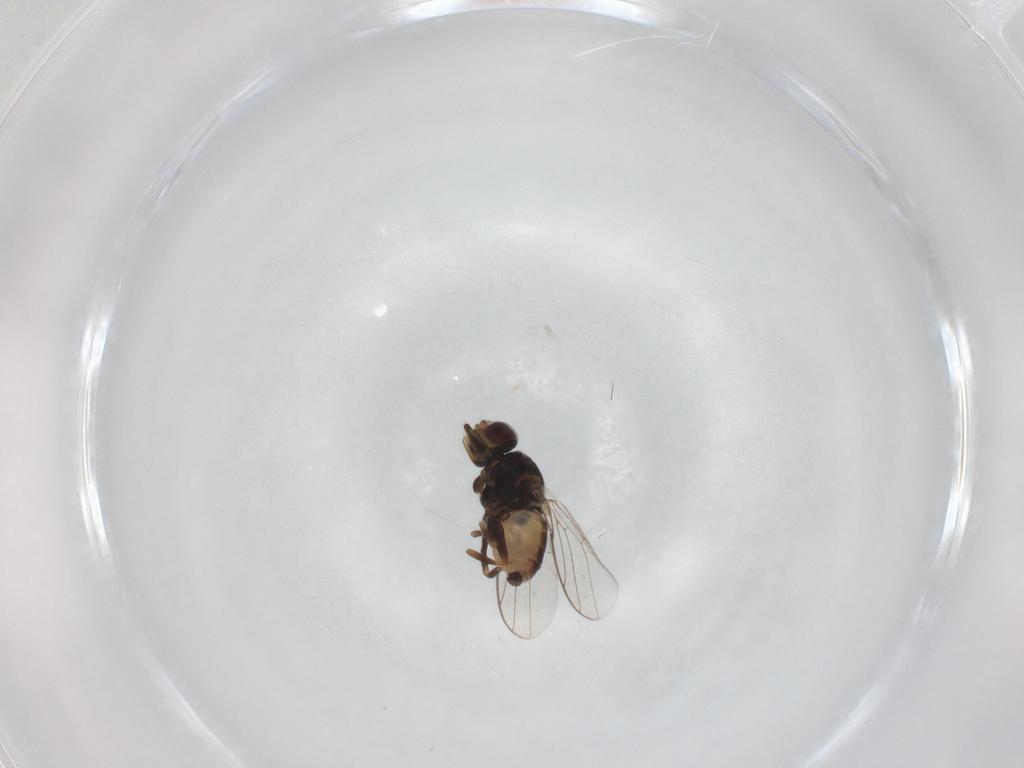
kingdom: Animalia
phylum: Arthropoda
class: Insecta
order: Diptera
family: Chloropidae
